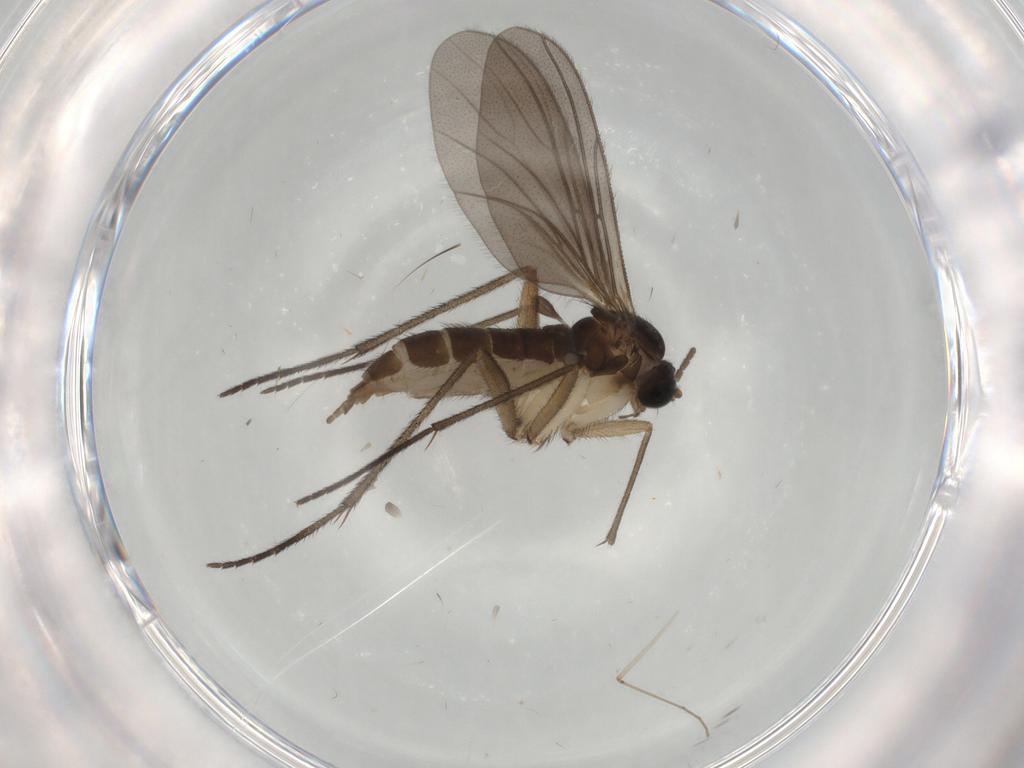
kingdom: Animalia
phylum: Arthropoda
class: Insecta
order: Diptera
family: Sciaridae
